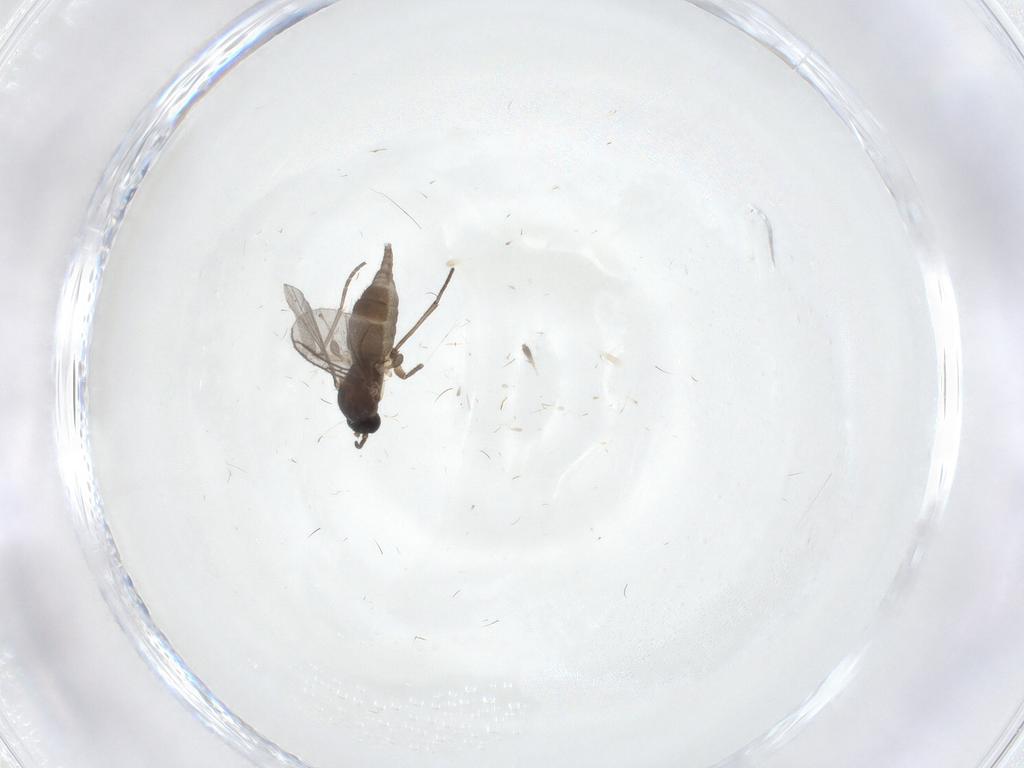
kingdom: Animalia
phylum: Arthropoda
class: Insecta
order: Diptera
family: Sciaridae
